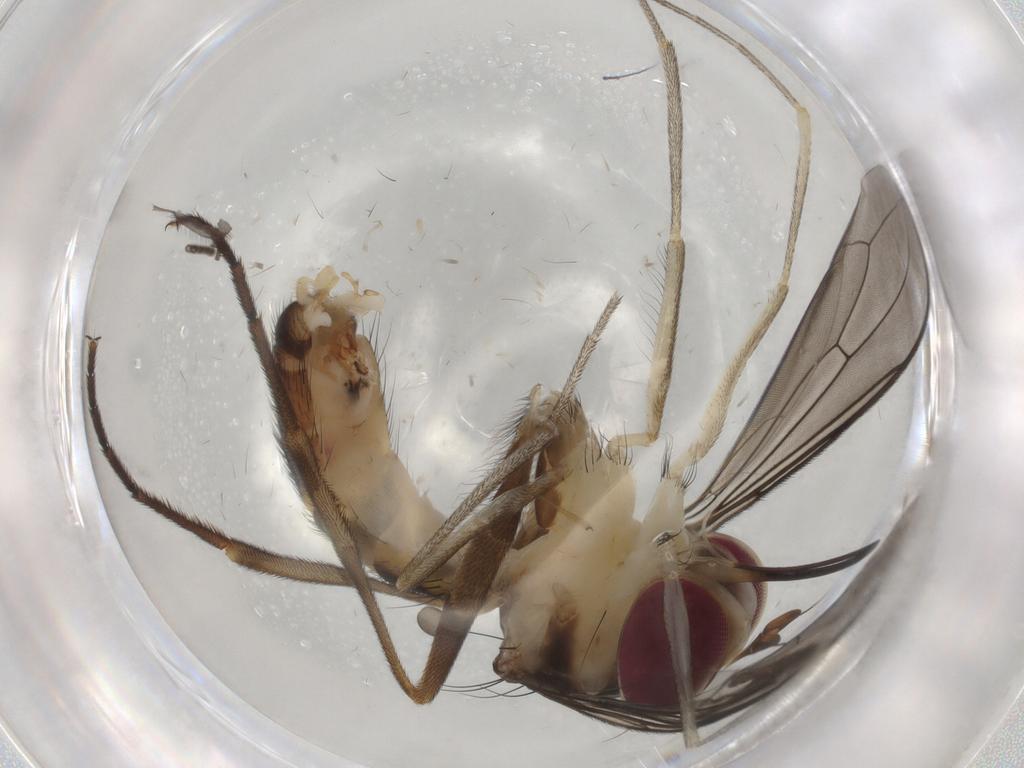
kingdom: Animalia
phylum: Arthropoda
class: Insecta
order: Diptera
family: Conopidae
